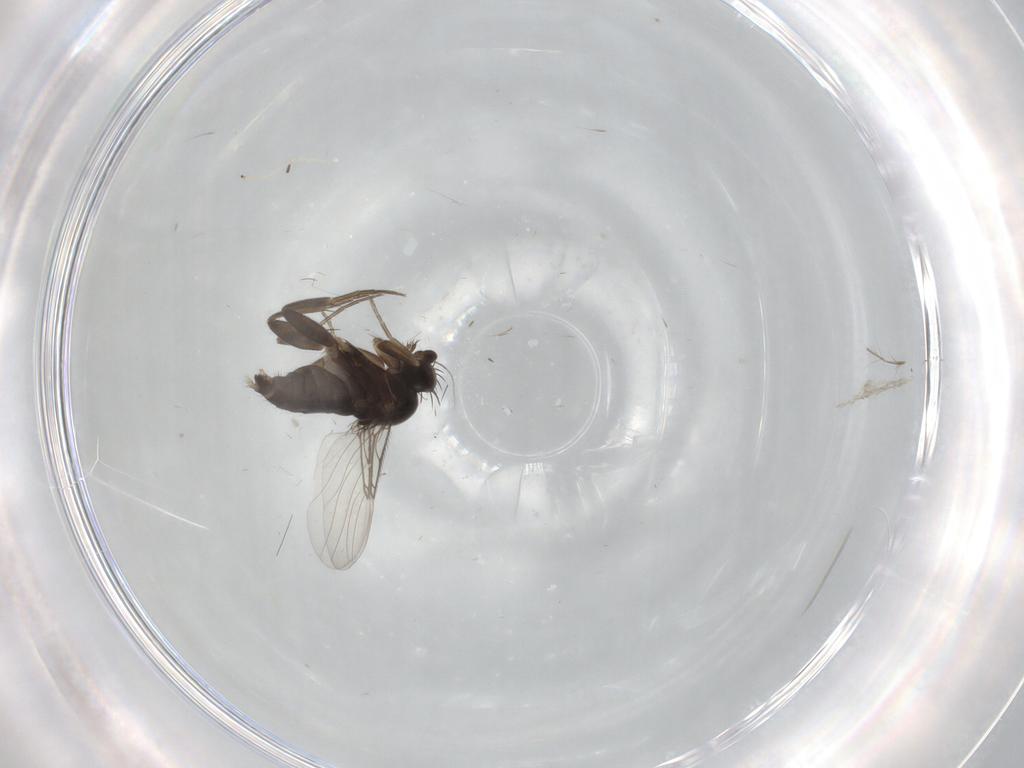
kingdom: Animalia
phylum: Arthropoda
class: Insecta
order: Diptera
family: Phoridae
